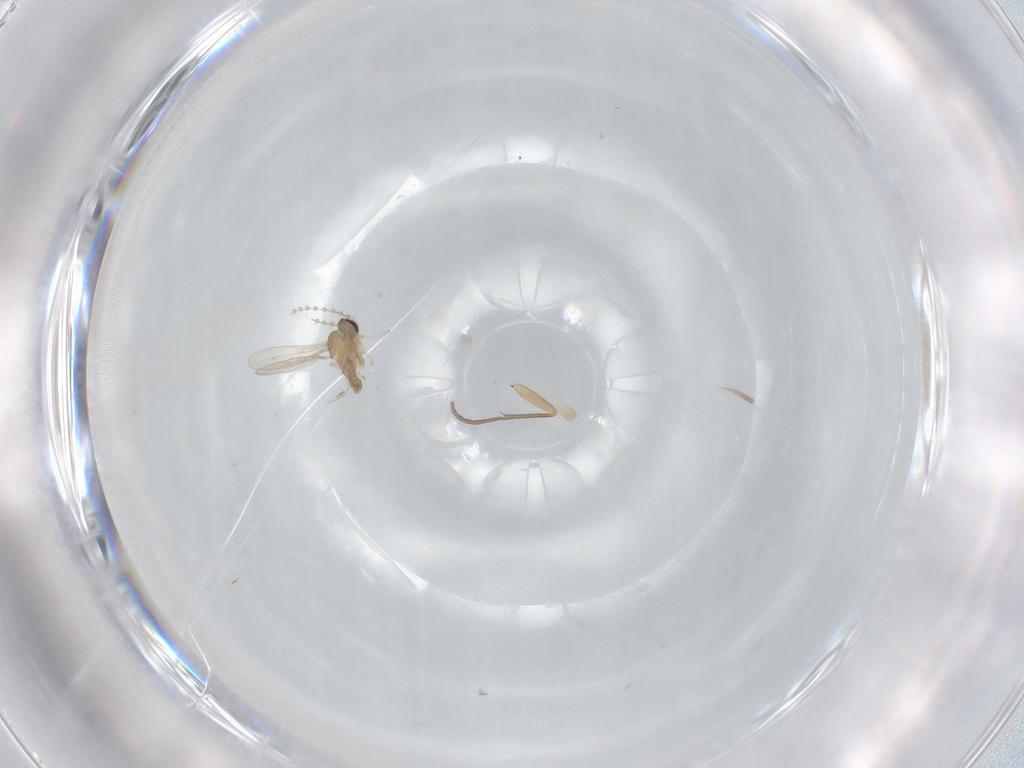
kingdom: Animalia
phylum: Arthropoda
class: Insecta
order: Diptera
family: Cecidomyiidae
